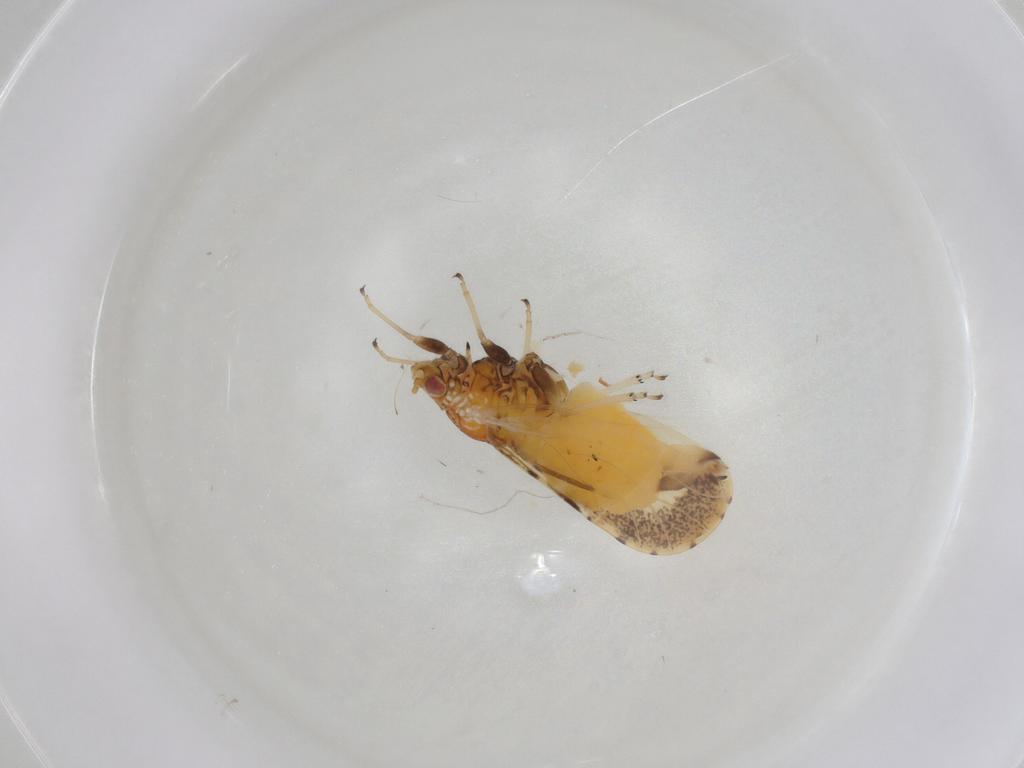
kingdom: Animalia
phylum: Arthropoda
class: Insecta
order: Hemiptera
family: Psyllidae
